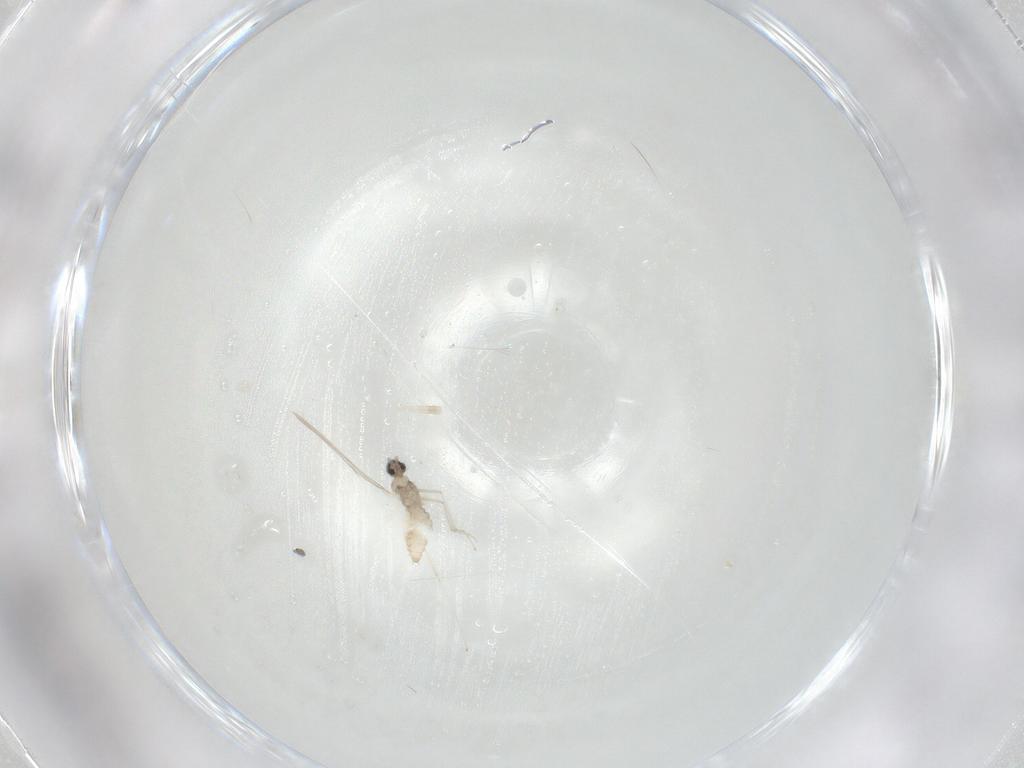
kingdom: Animalia
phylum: Arthropoda
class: Insecta
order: Diptera
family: Cecidomyiidae
